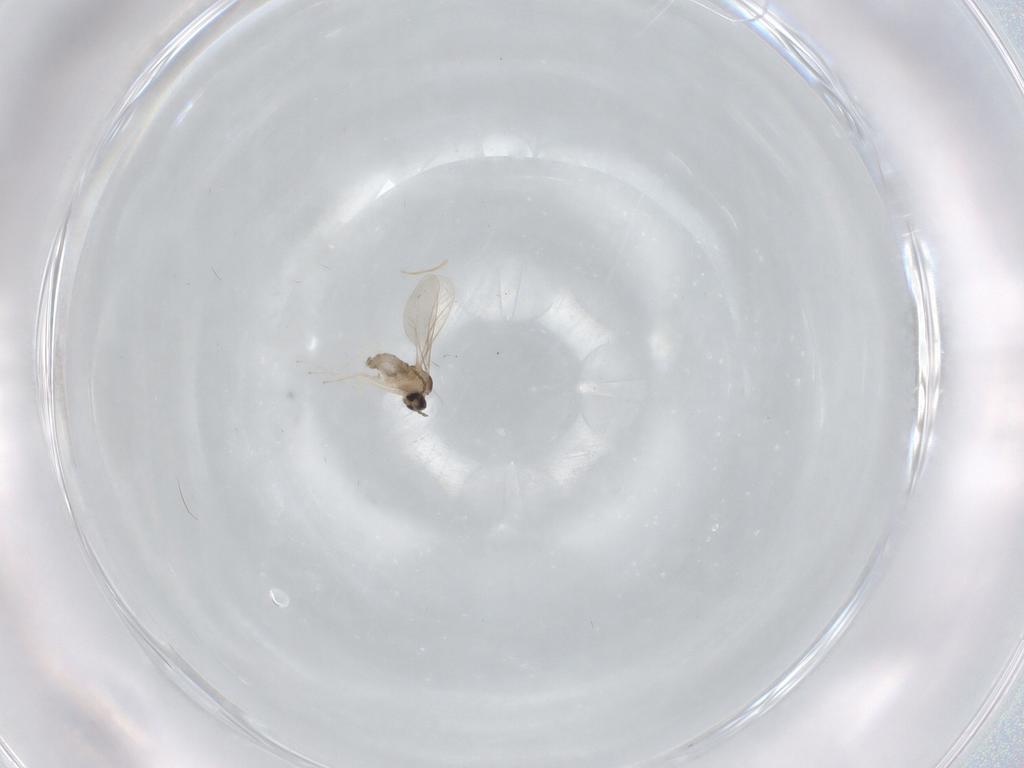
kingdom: Animalia
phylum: Arthropoda
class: Insecta
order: Diptera
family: Cecidomyiidae
